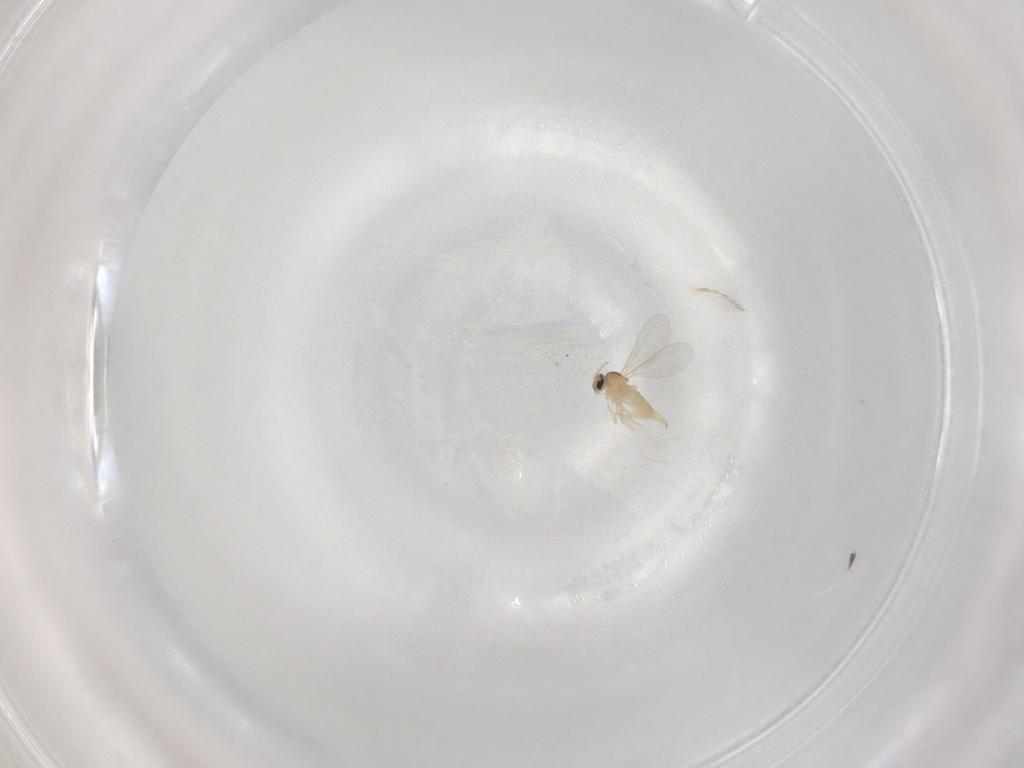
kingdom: Animalia
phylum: Arthropoda
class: Insecta
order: Diptera
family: Cecidomyiidae
